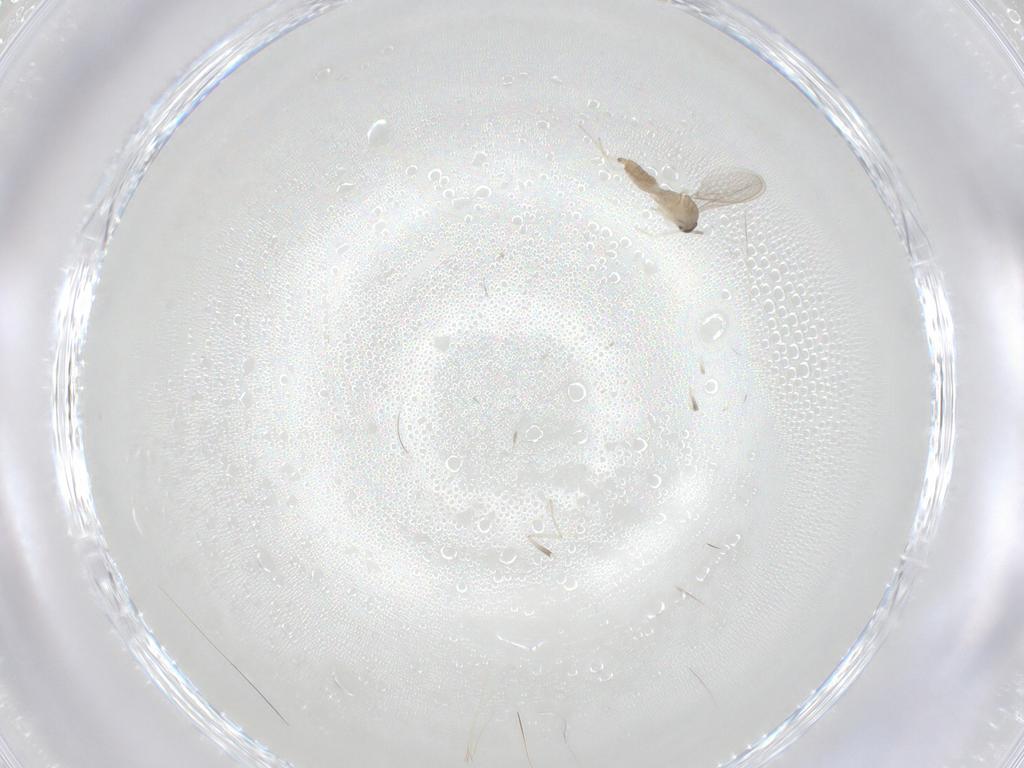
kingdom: Animalia
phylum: Arthropoda
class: Insecta
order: Diptera
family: Cecidomyiidae
